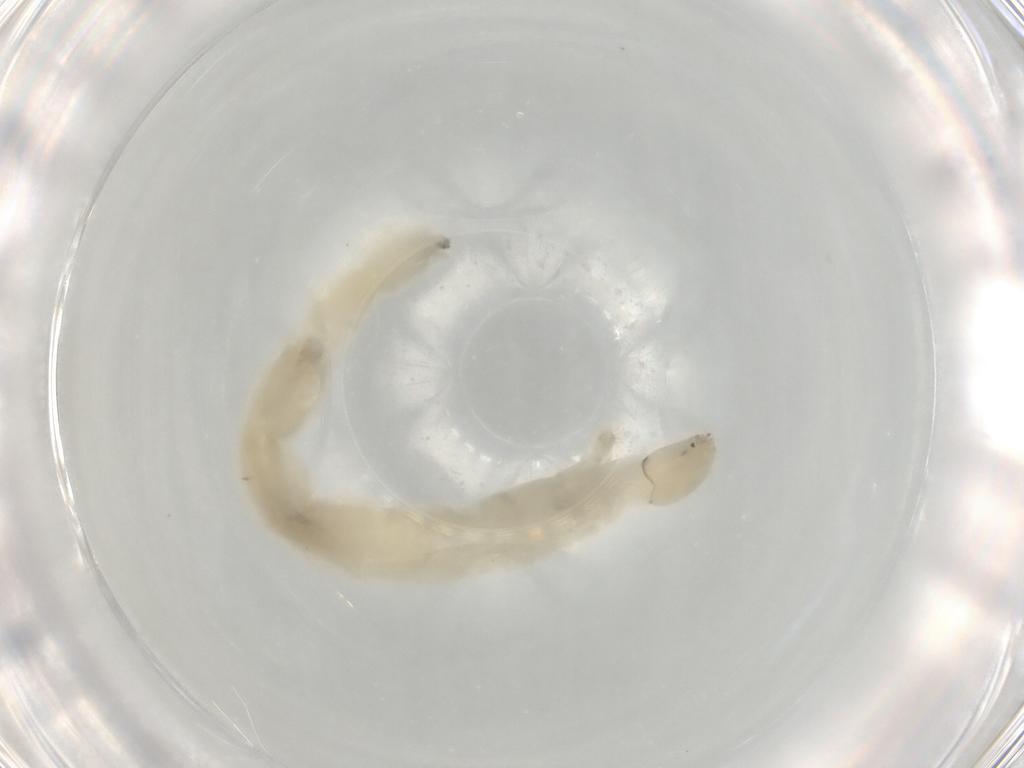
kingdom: Animalia
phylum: Arthropoda
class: Insecta
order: Diptera
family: Chironomidae
